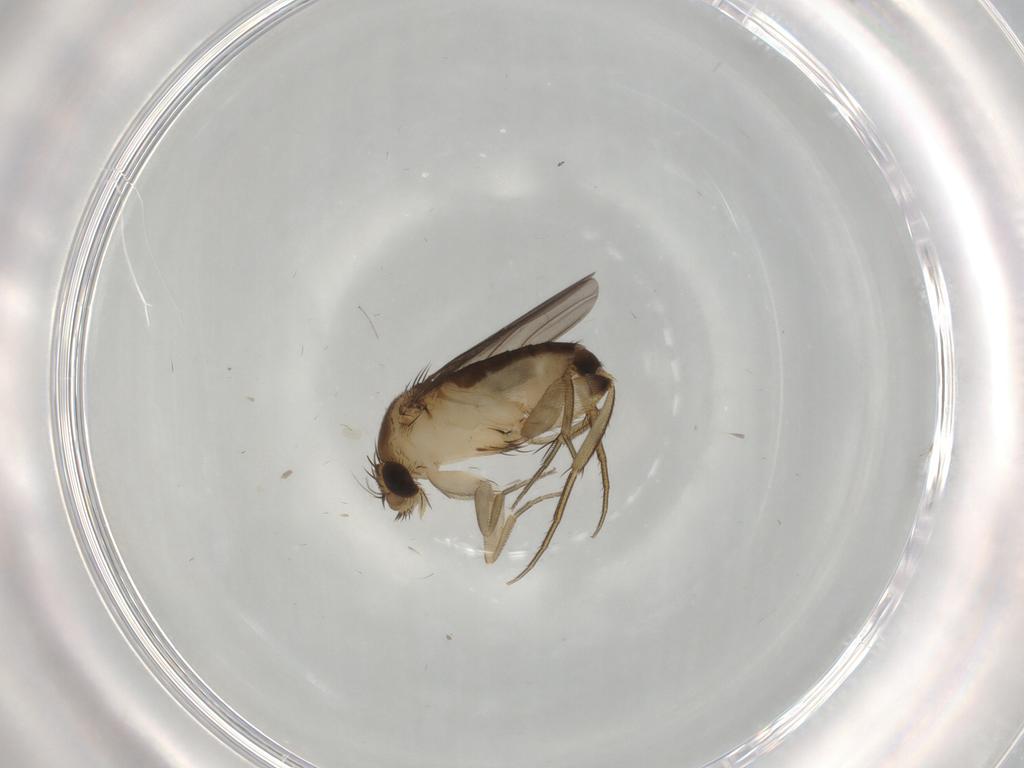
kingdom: Animalia
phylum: Arthropoda
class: Insecta
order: Diptera
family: Phoridae
